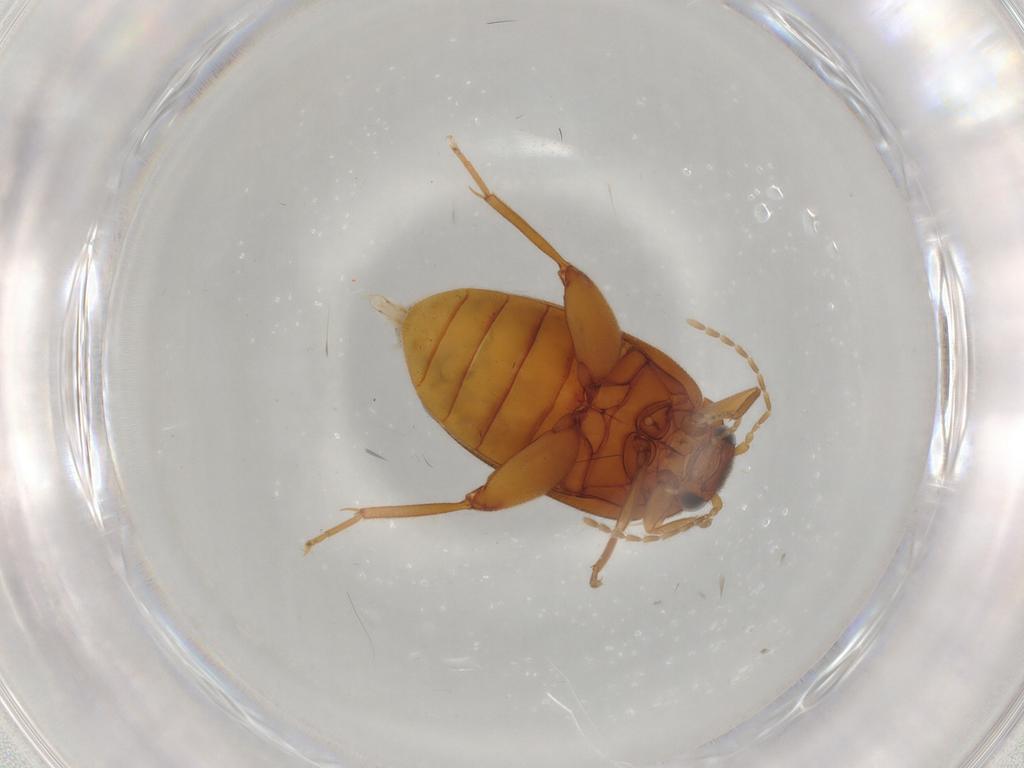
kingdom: Animalia
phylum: Arthropoda
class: Insecta
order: Coleoptera
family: Scirtidae
